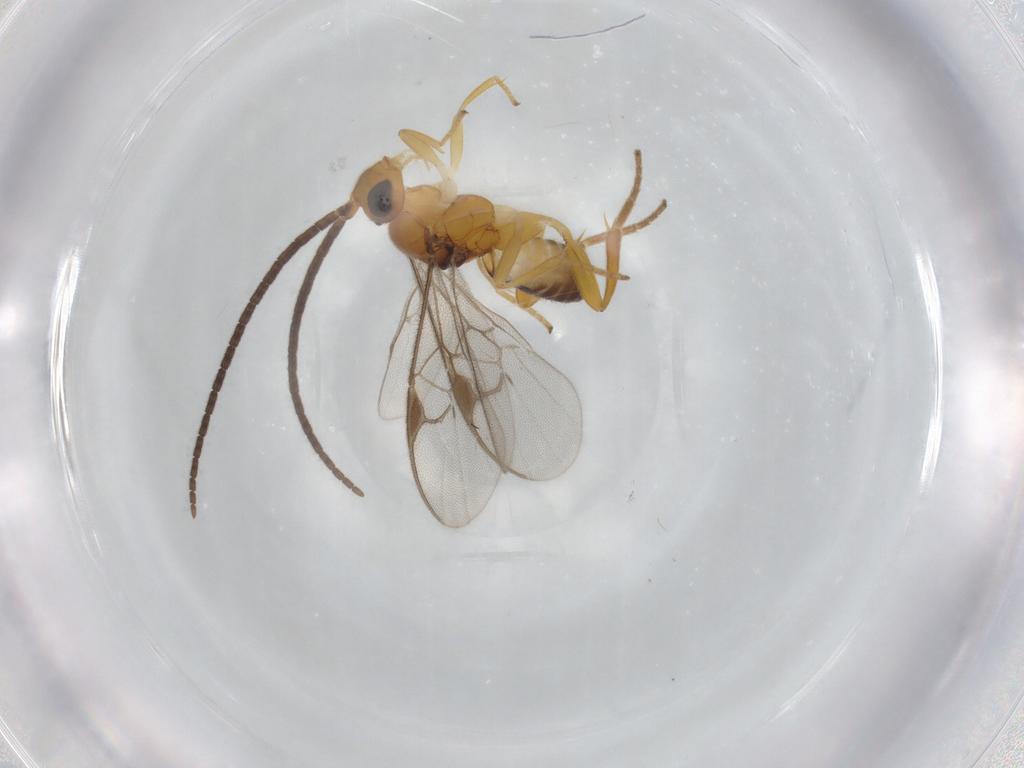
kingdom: Animalia
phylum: Arthropoda
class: Insecta
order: Hymenoptera
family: Braconidae
